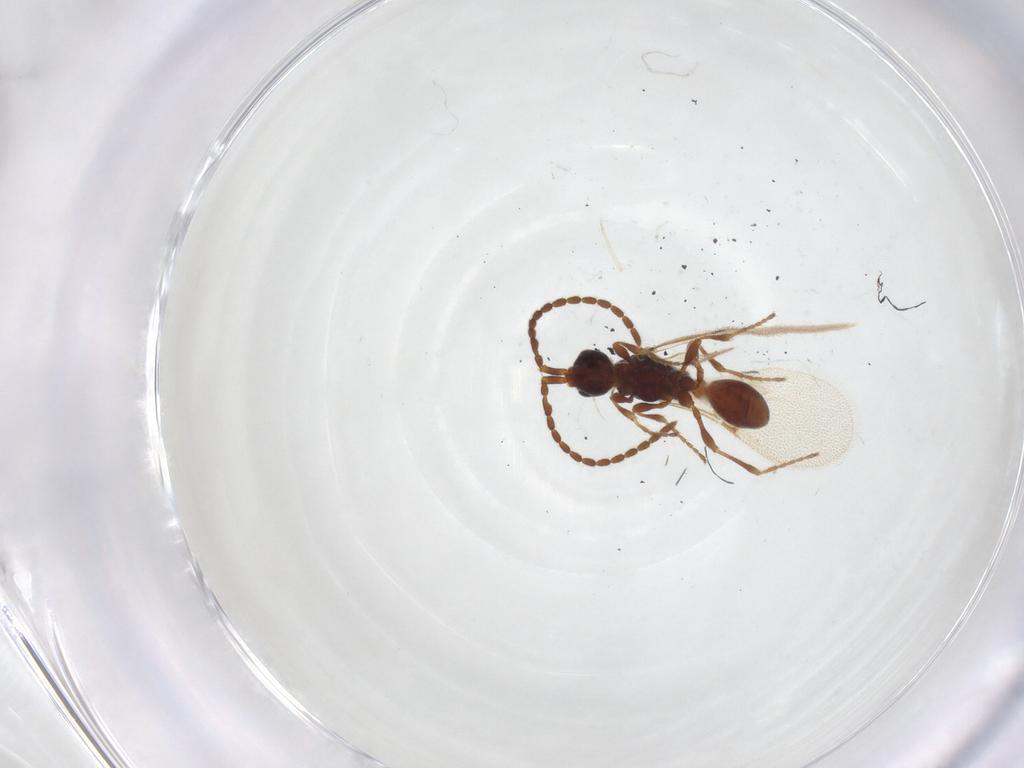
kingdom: Animalia
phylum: Arthropoda
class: Insecta
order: Hymenoptera
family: Diapriidae
